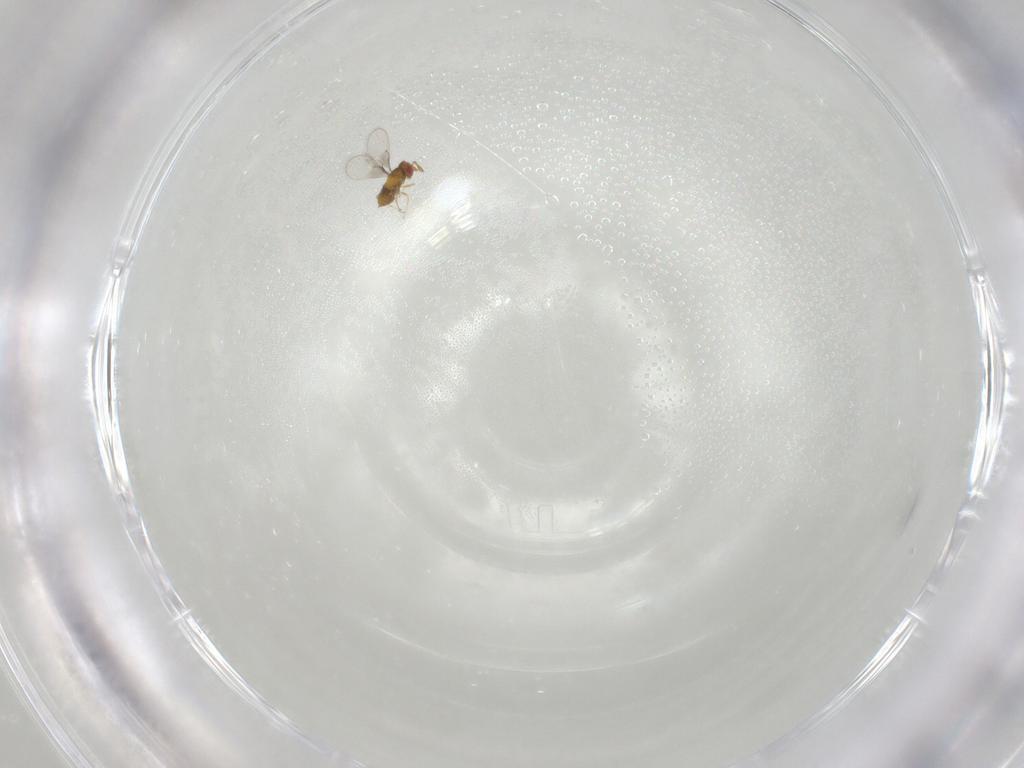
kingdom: Animalia
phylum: Arthropoda
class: Insecta
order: Hymenoptera
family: Trichogrammatidae
